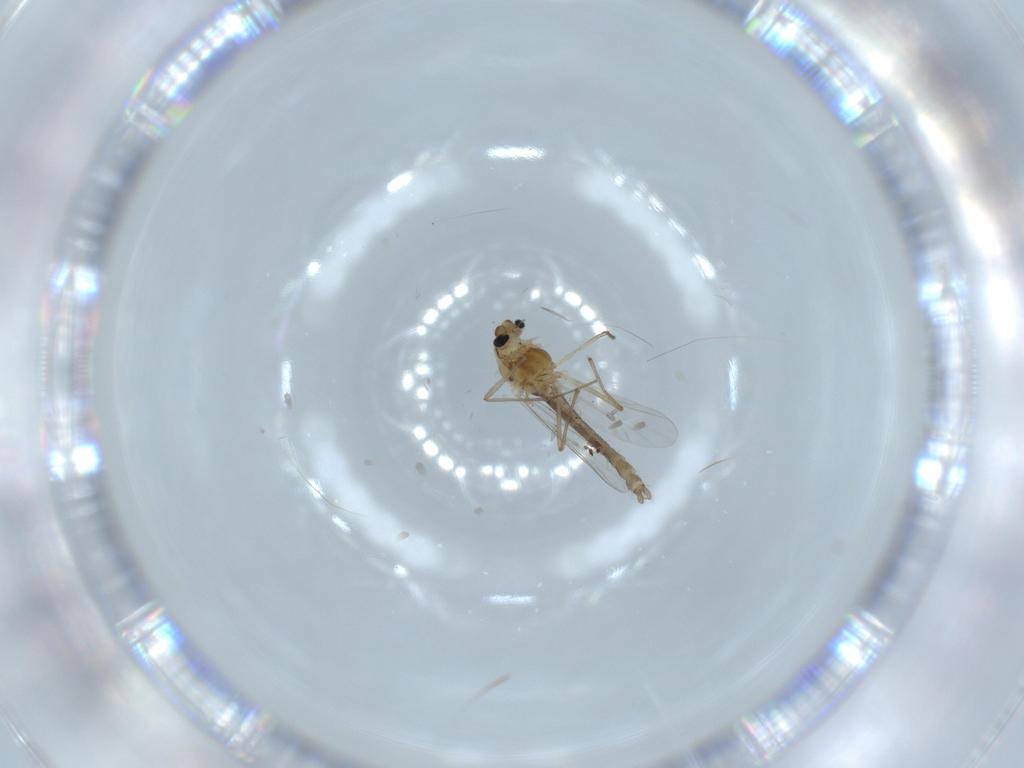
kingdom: Animalia
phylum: Arthropoda
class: Insecta
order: Diptera
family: Chironomidae
